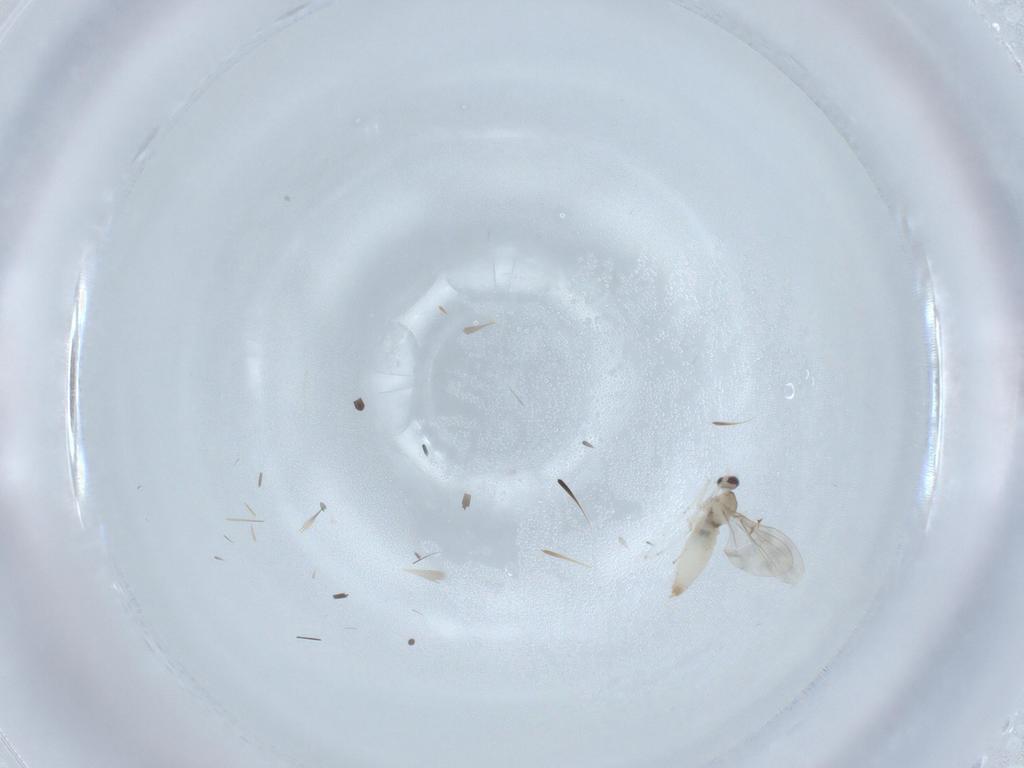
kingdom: Animalia
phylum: Arthropoda
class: Insecta
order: Diptera
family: Cecidomyiidae
